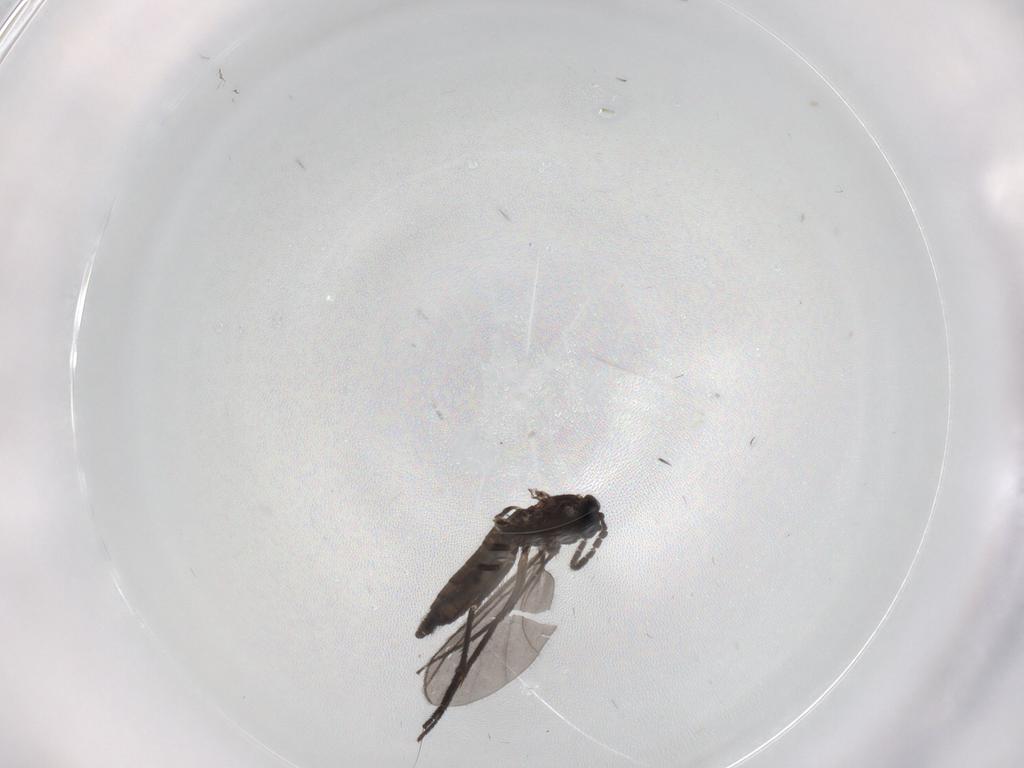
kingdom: Animalia
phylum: Arthropoda
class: Insecta
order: Diptera
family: Sciaridae
